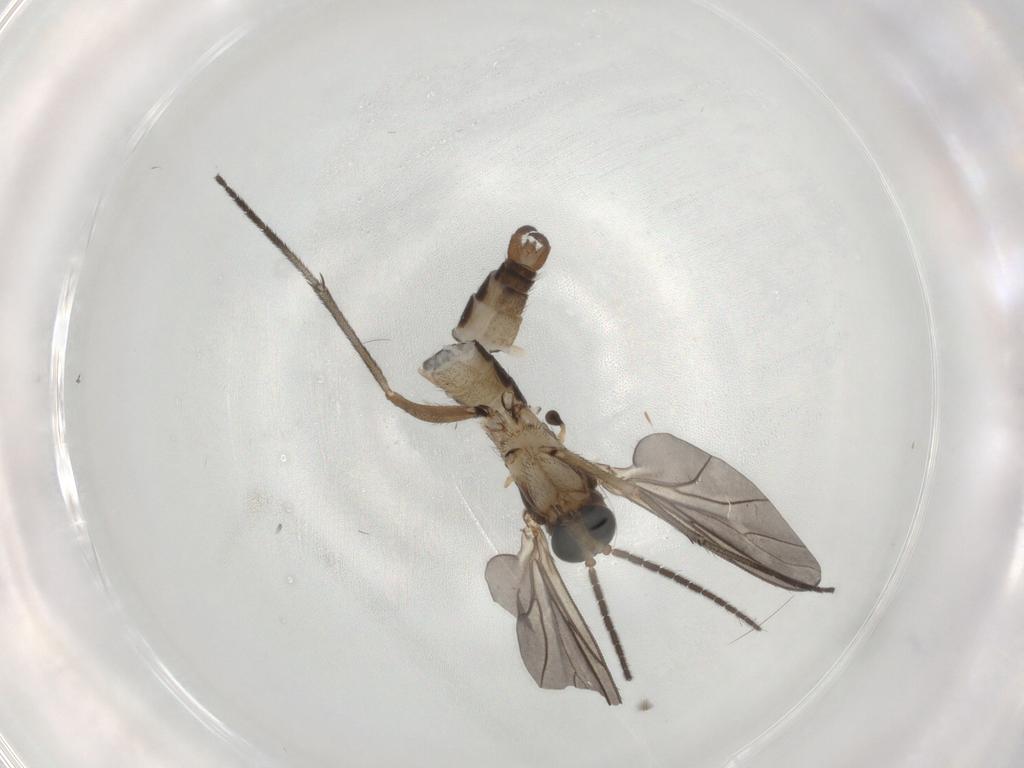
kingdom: Animalia
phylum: Arthropoda
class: Insecta
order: Diptera
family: Sciaridae
